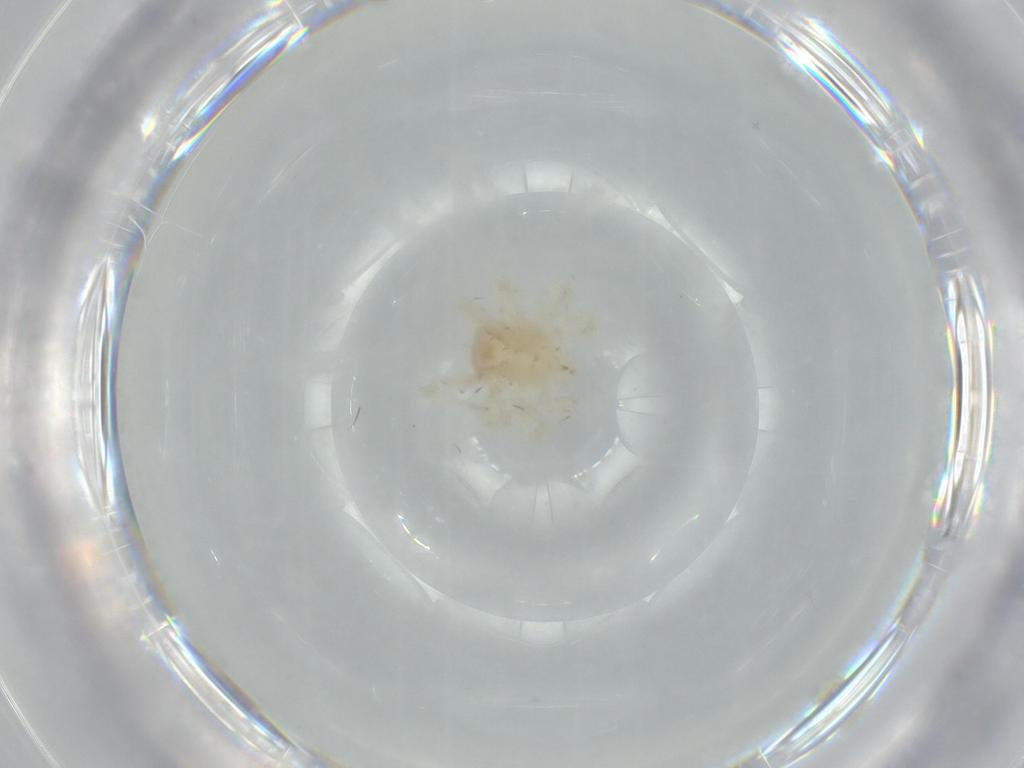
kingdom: Animalia
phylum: Arthropoda
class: Arachnida
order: Trombidiformes
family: Anystidae
